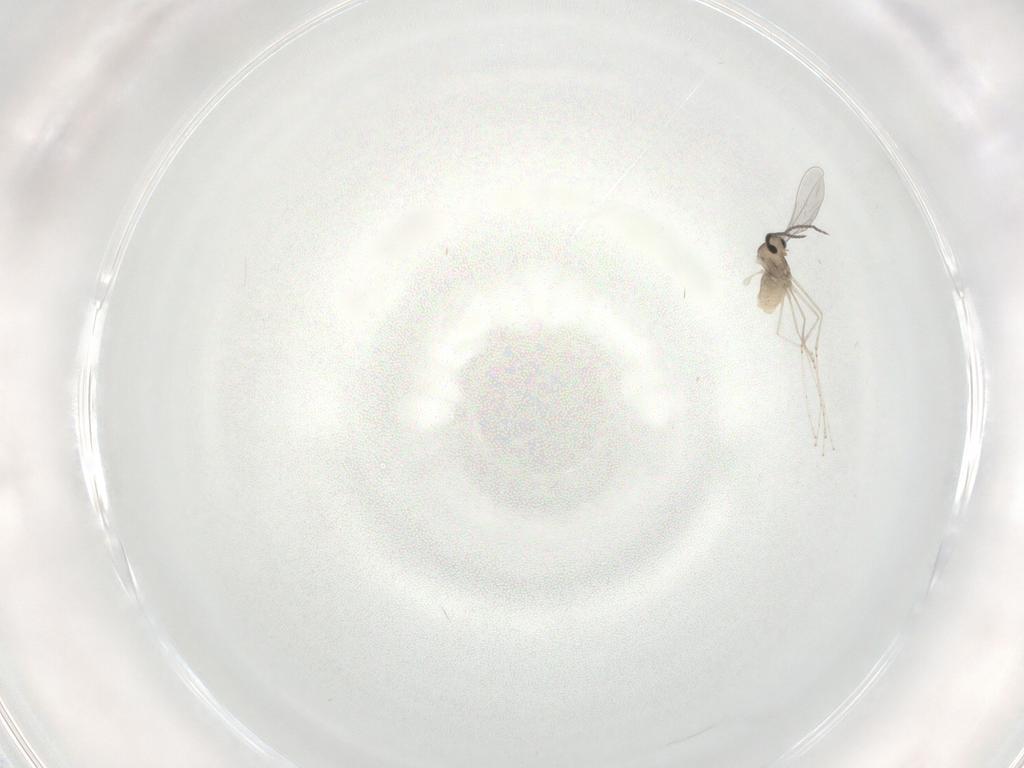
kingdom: Animalia
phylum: Arthropoda
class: Insecta
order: Diptera
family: Cecidomyiidae
